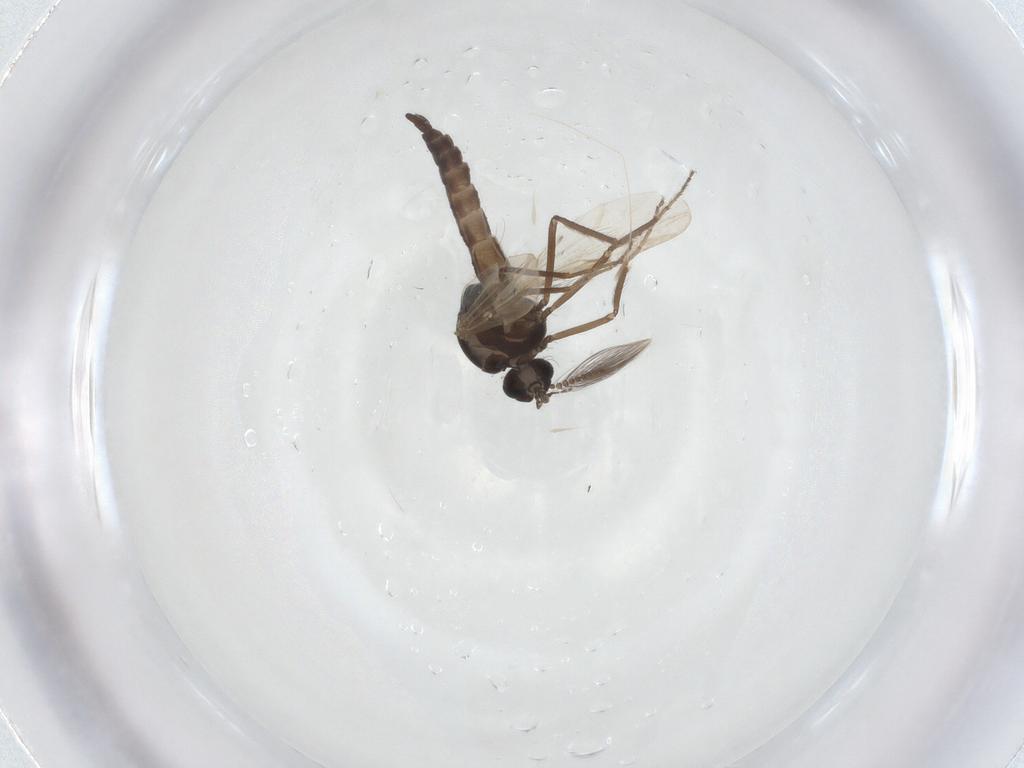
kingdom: Animalia
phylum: Arthropoda
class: Insecta
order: Diptera
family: Ceratopogonidae
